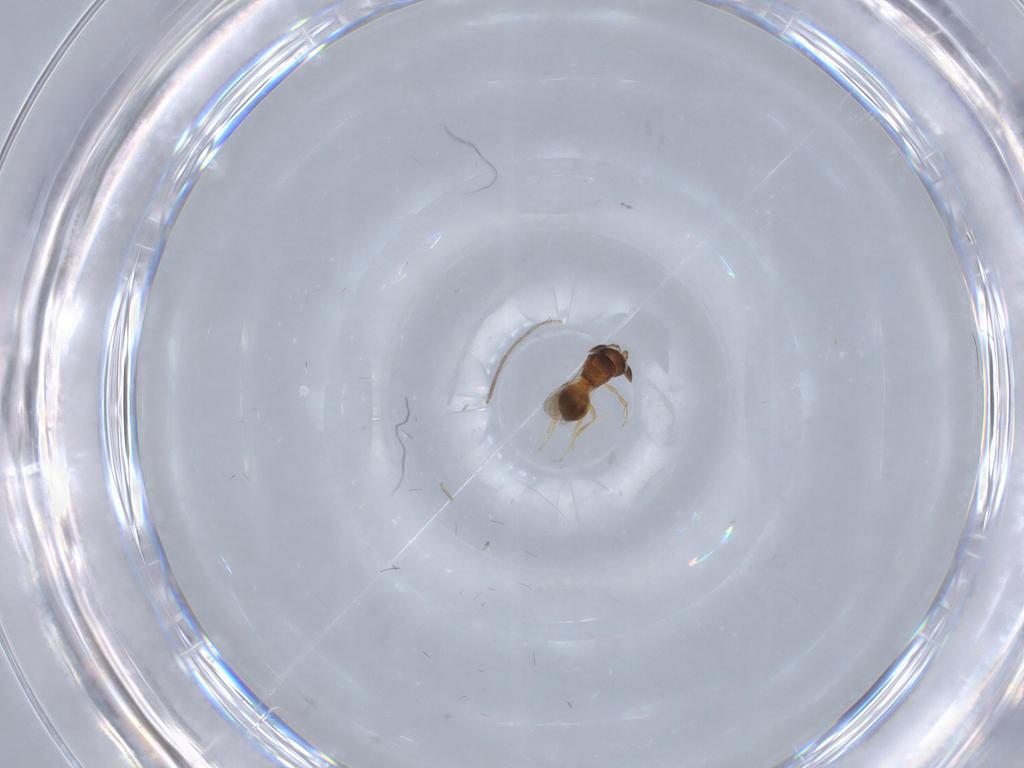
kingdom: Animalia
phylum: Arthropoda
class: Insecta
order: Hymenoptera
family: Scelionidae
